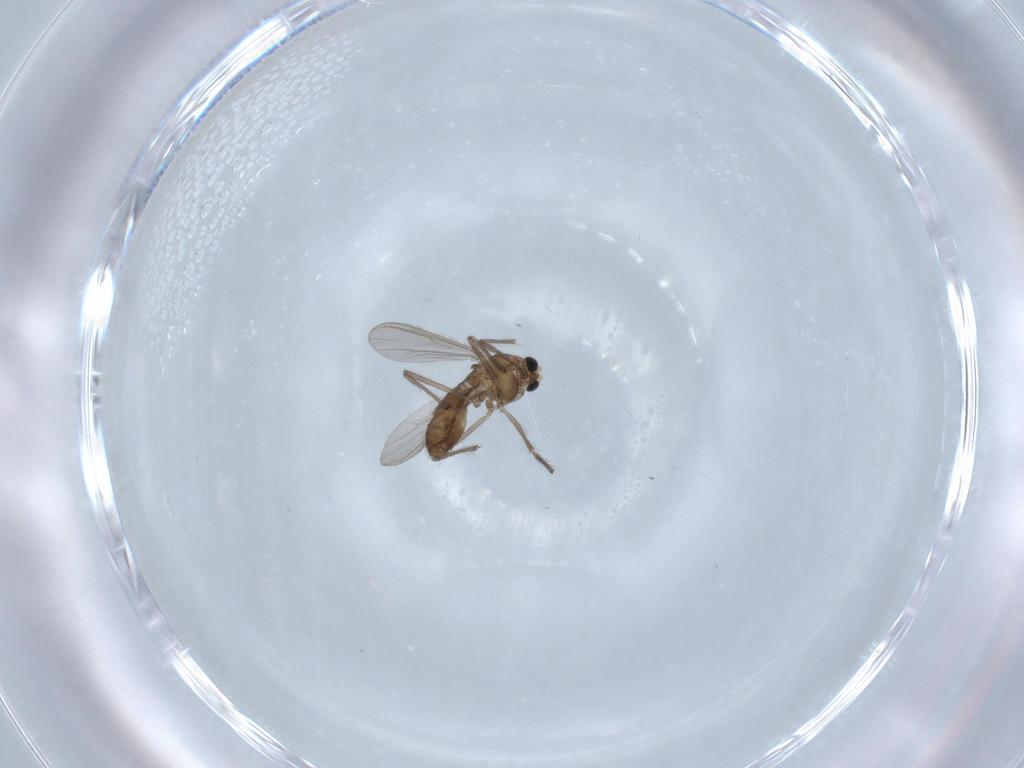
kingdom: Animalia
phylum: Arthropoda
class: Insecta
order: Diptera
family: Chironomidae
